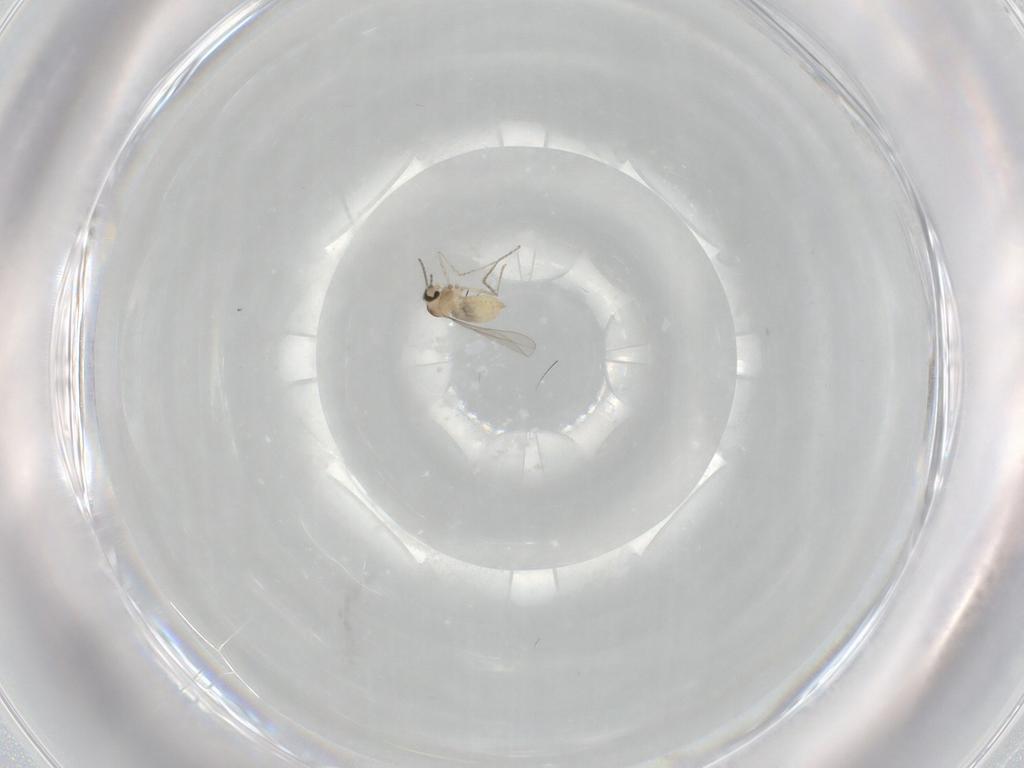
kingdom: Animalia
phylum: Arthropoda
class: Insecta
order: Diptera
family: Cecidomyiidae
